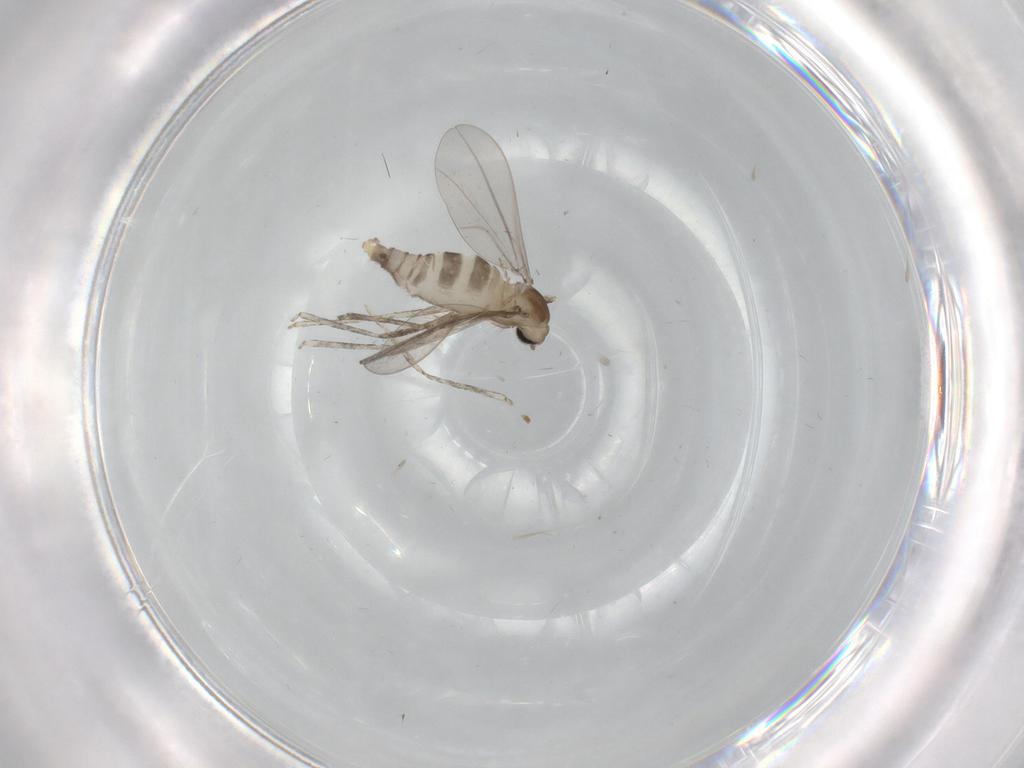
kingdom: Animalia
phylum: Arthropoda
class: Insecta
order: Diptera
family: Cecidomyiidae
